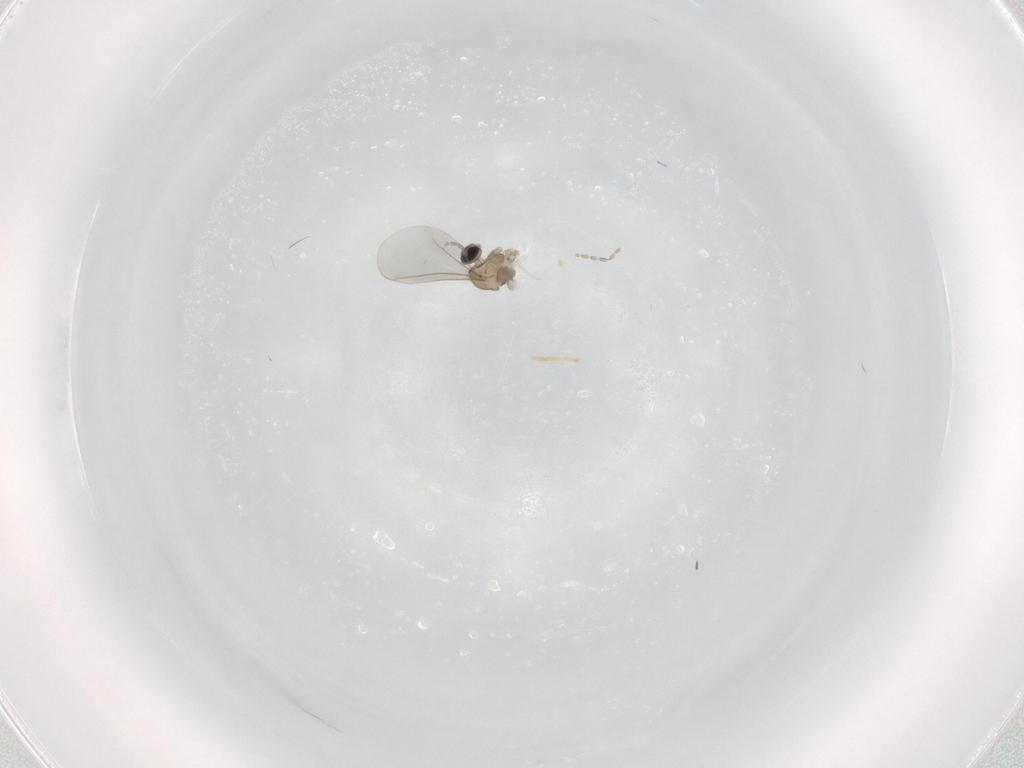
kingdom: Animalia
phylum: Arthropoda
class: Insecta
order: Diptera
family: Cecidomyiidae
